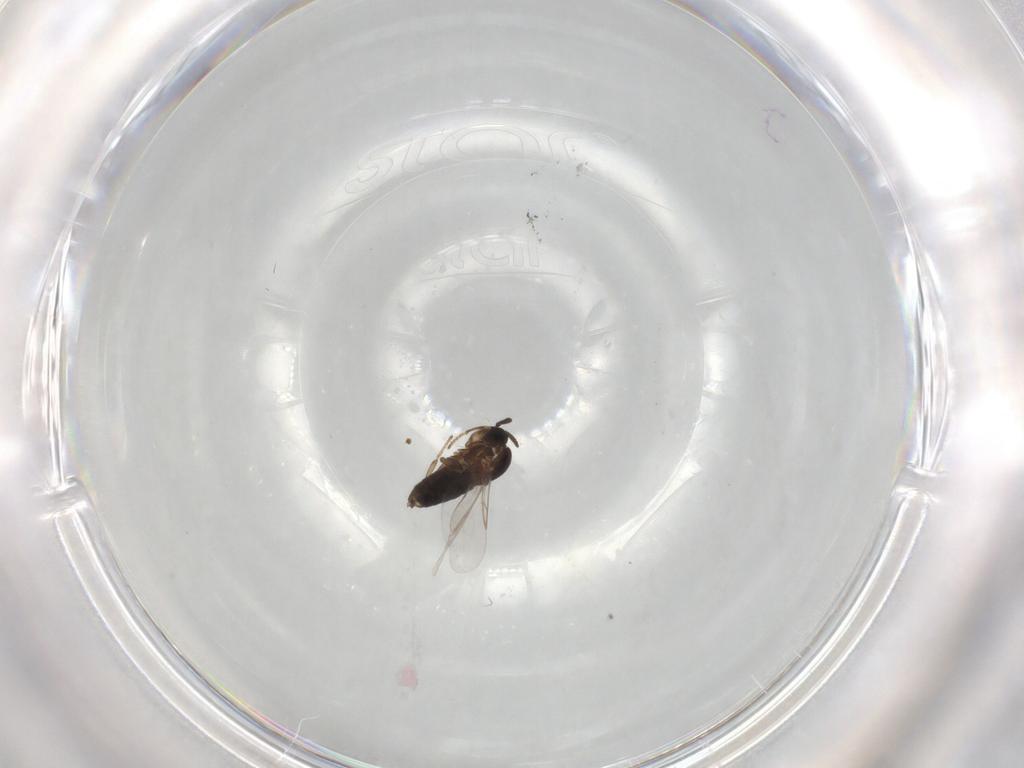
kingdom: Animalia
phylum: Arthropoda
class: Insecta
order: Diptera
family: Scatopsidae
